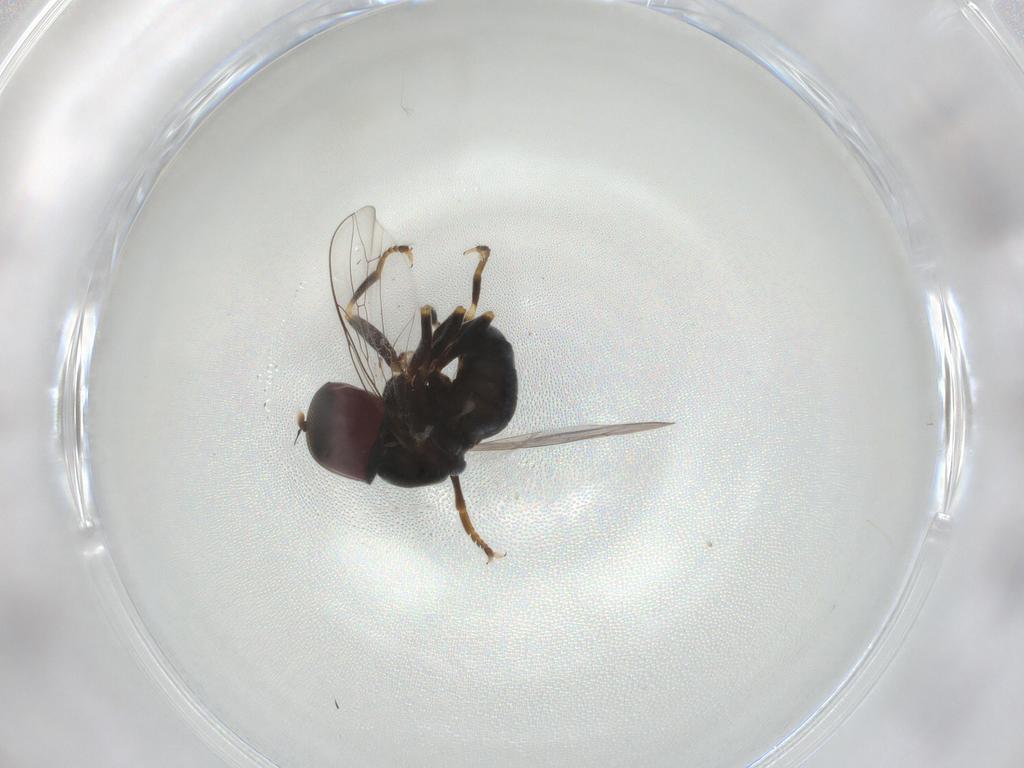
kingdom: Animalia
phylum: Arthropoda
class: Insecta
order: Diptera
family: Pipunculidae
